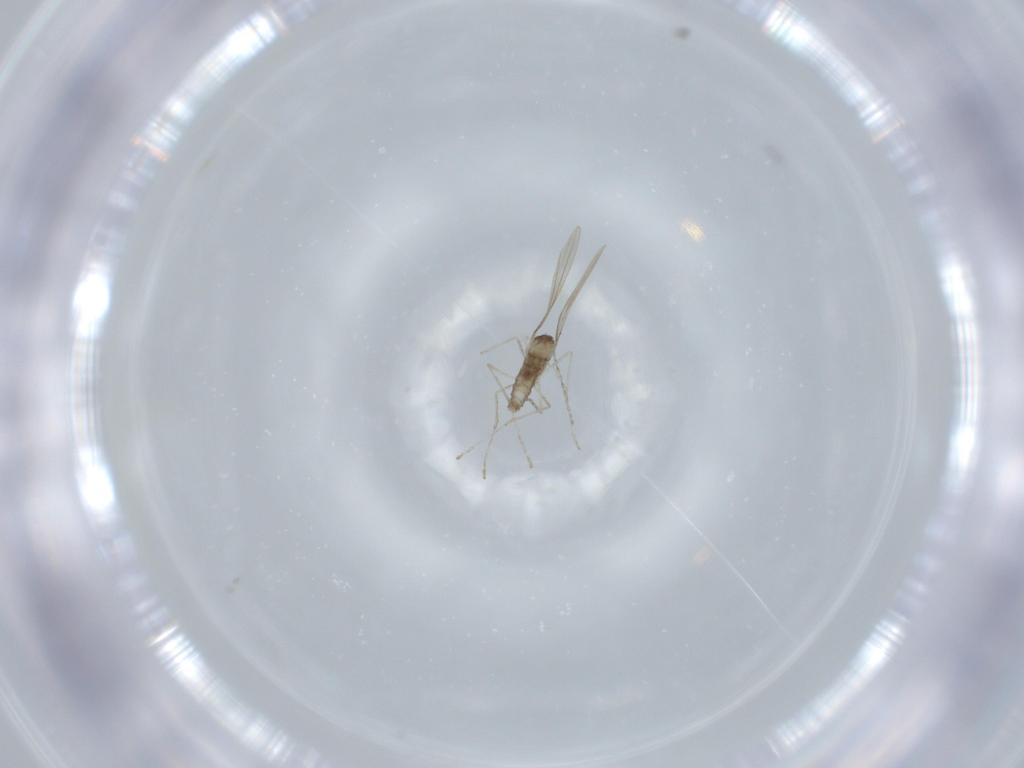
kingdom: Animalia
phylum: Arthropoda
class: Insecta
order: Diptera
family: Cecidomyiidae
